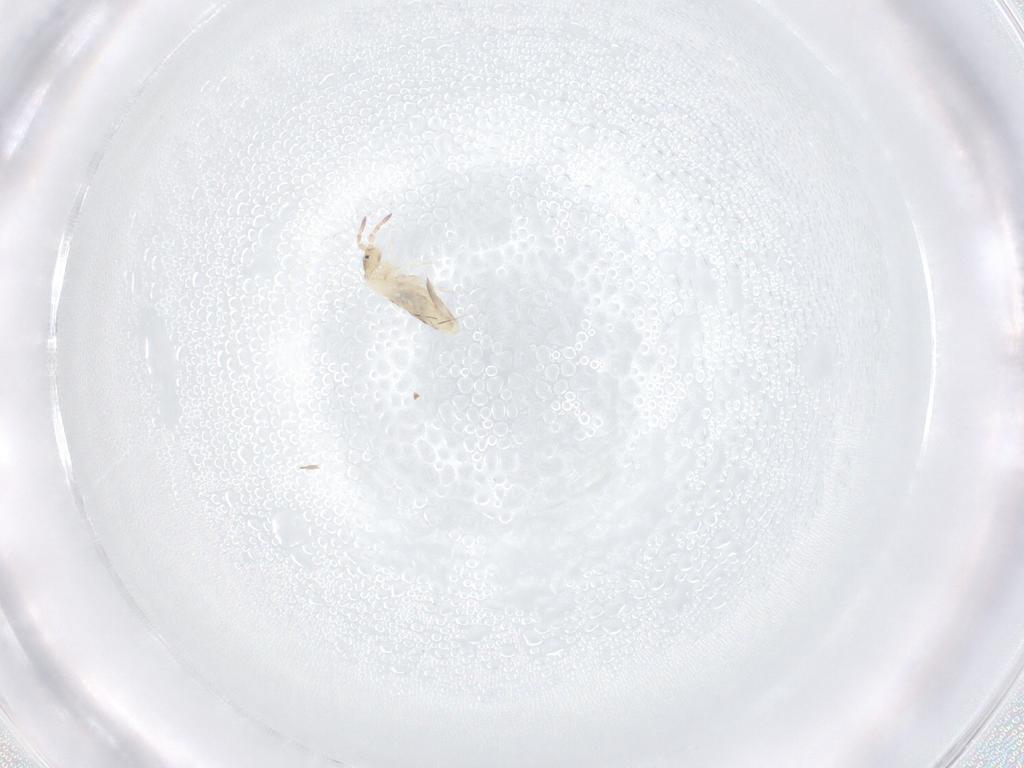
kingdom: Animalia
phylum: Arthropoda
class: Collembola
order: Entomobryomorpha
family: Entomobryidae
